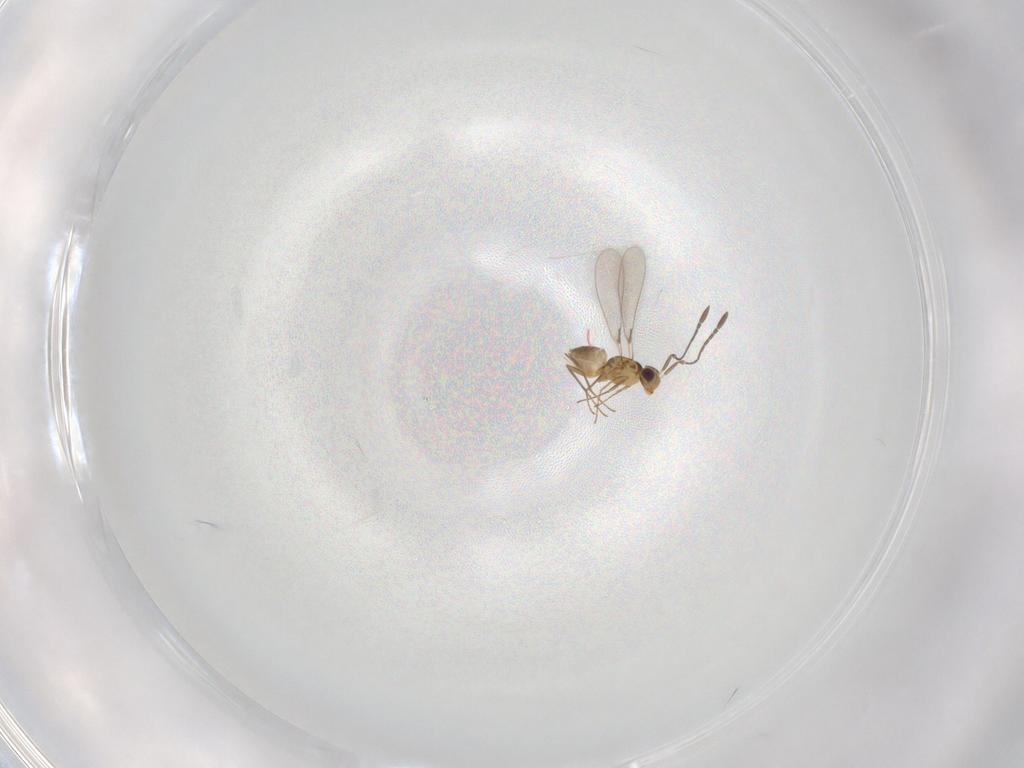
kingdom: Animalia
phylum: Arthropoda
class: Insecta
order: Hymenoptera
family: Mymaridae
